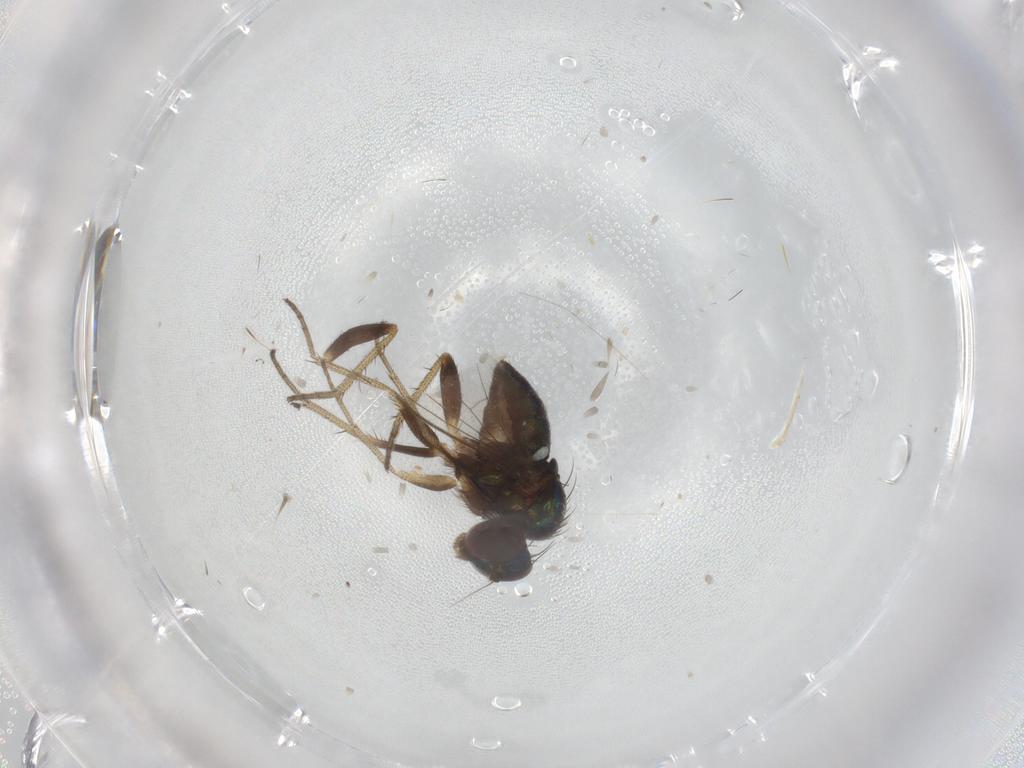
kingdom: Animalia
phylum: Arthropoda
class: Insecta
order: Diptera
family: Dolichopodidae
